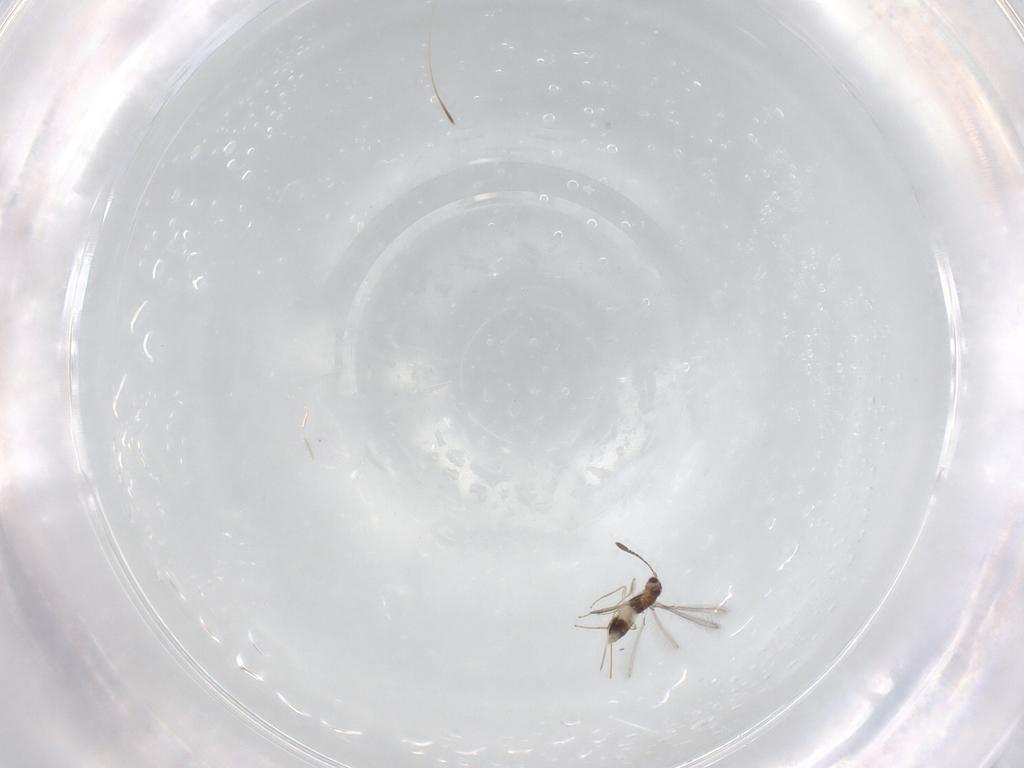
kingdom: Animalia
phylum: Arthropoda
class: Insecta
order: Hymenoptera
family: Mymaridae
